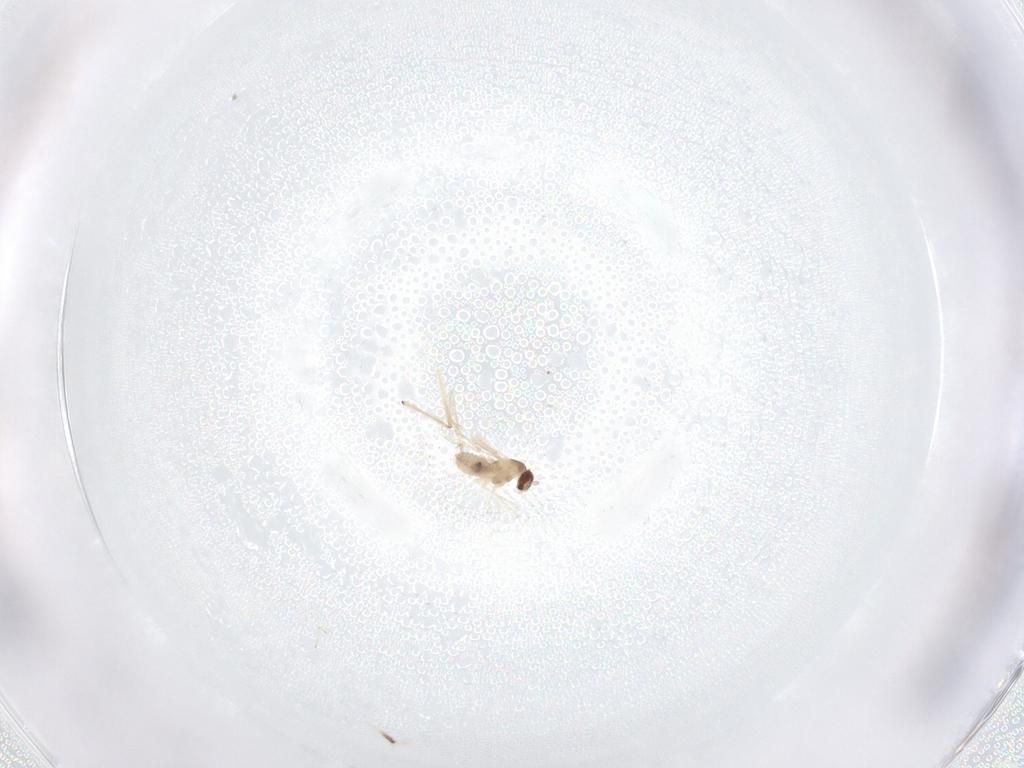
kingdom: Animalia
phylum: Arthropoda
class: Insecta
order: Diptera
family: Cecidomyiidae
